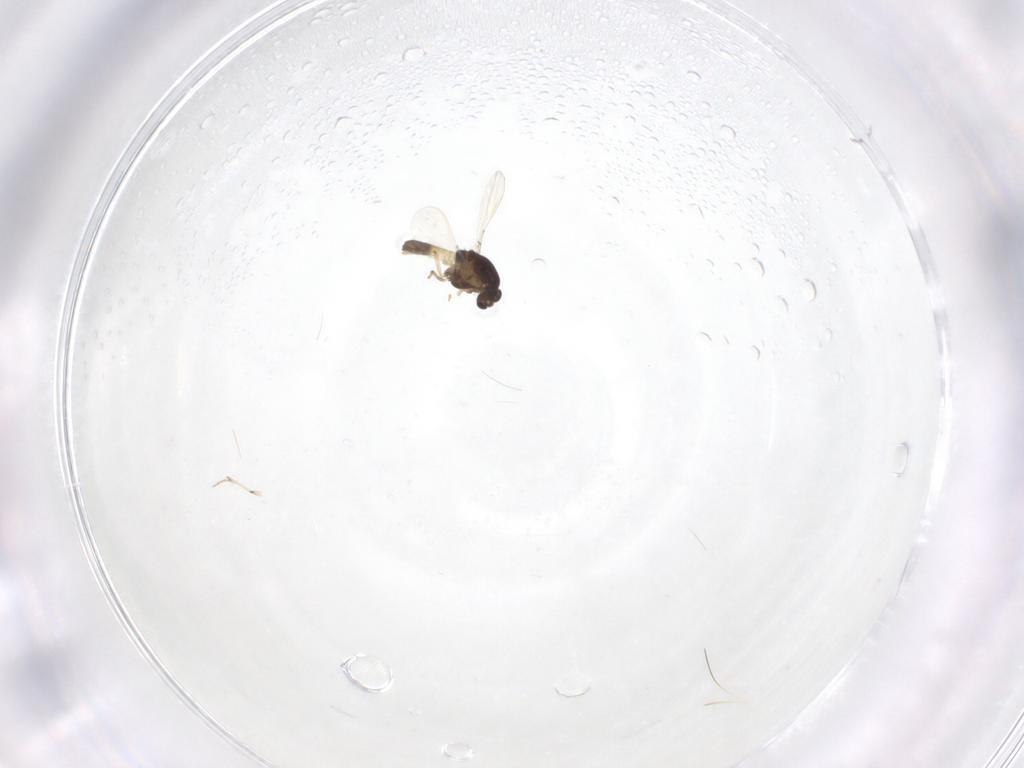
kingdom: Animalia
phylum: Arthropoda
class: Insecta
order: Diptera
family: Chironomidae
